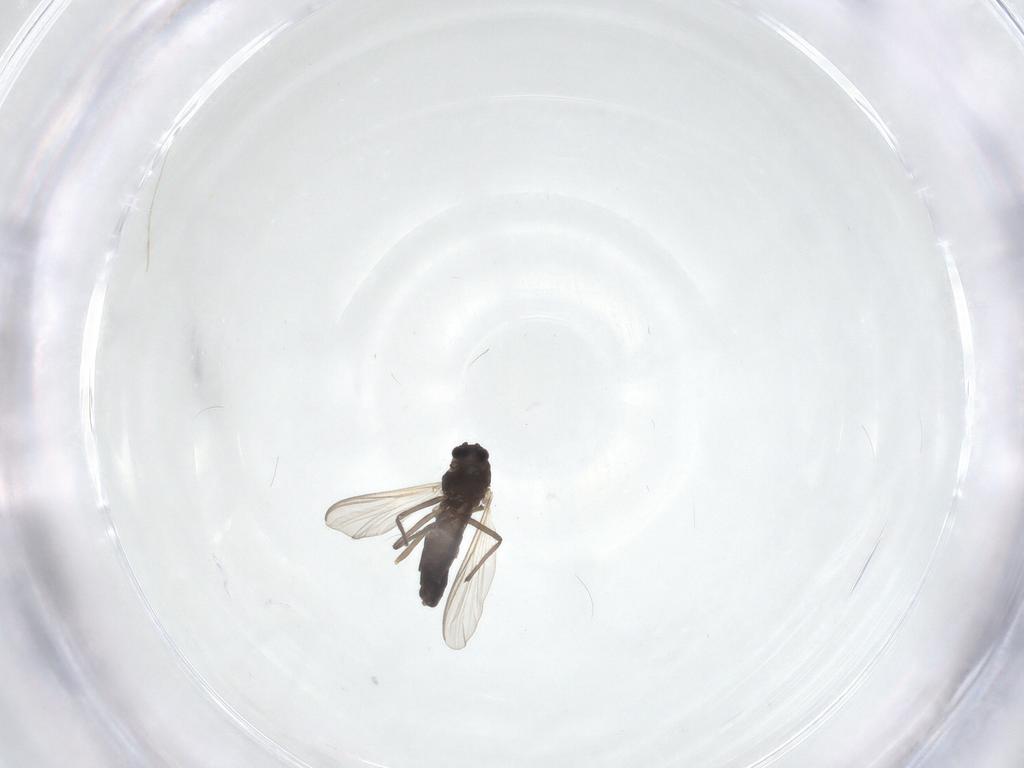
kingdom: Animalia
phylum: Arthropoda
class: Insecta
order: Diptera
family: Chironomidae
